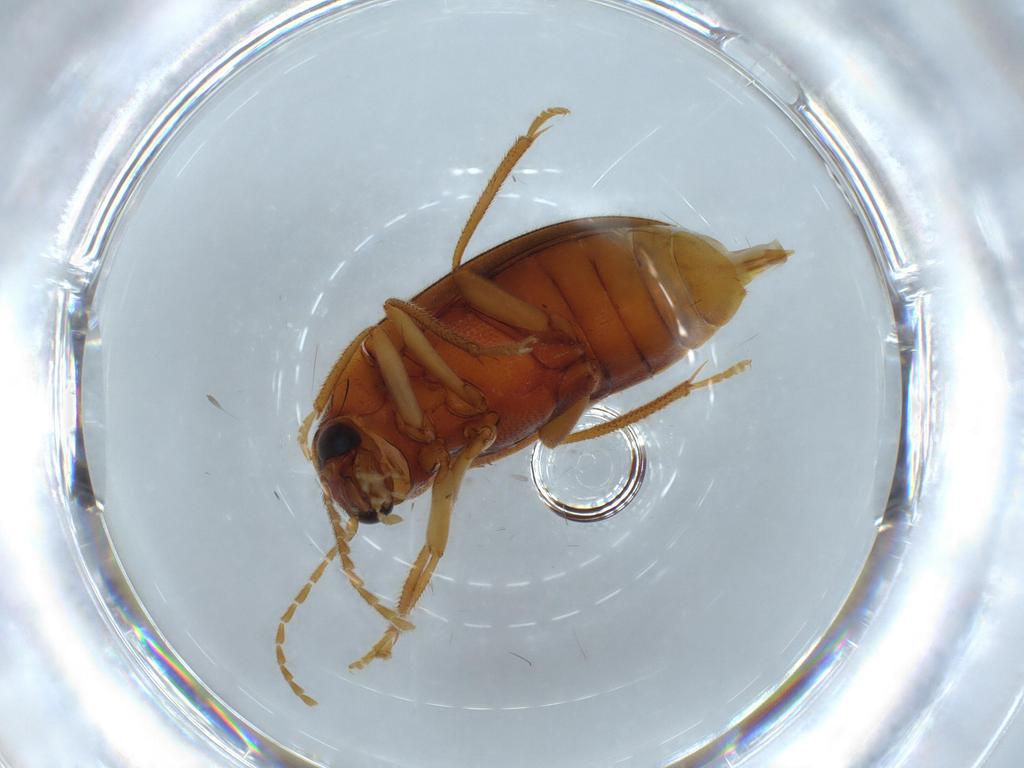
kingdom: Animalia
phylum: Arthropoda
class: Insecta
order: Coleoptera
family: Ptilodactylidae
